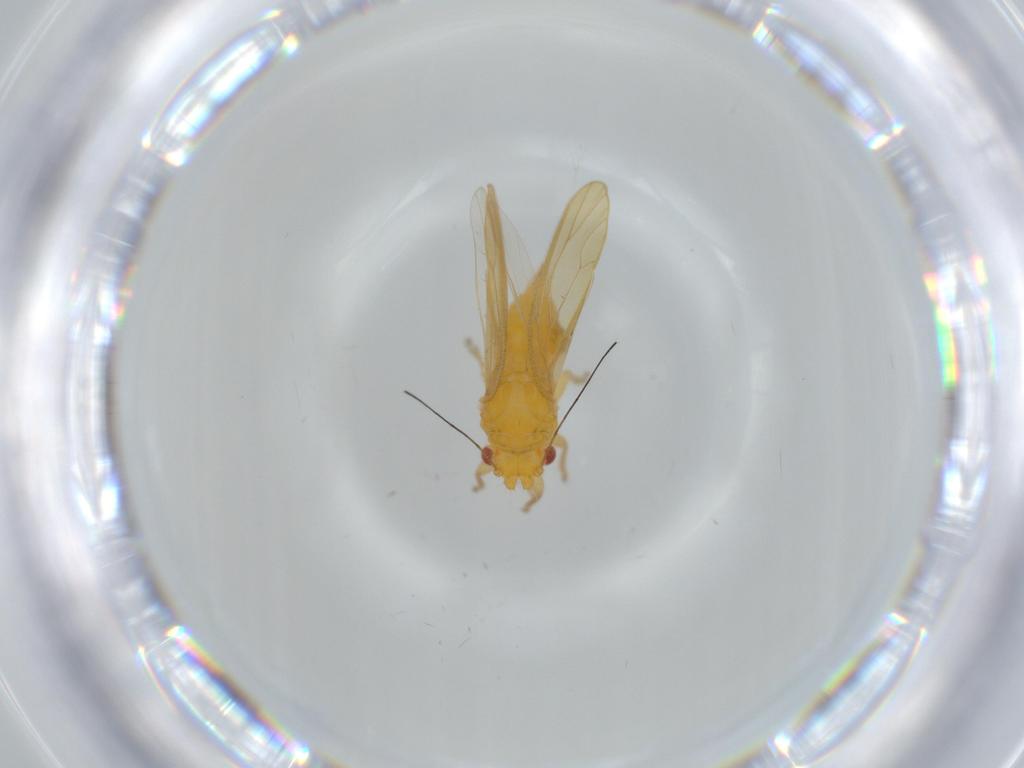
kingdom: Animalia
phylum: Arthropoda
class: Insecta
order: Hemiptera
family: Psyllidae
